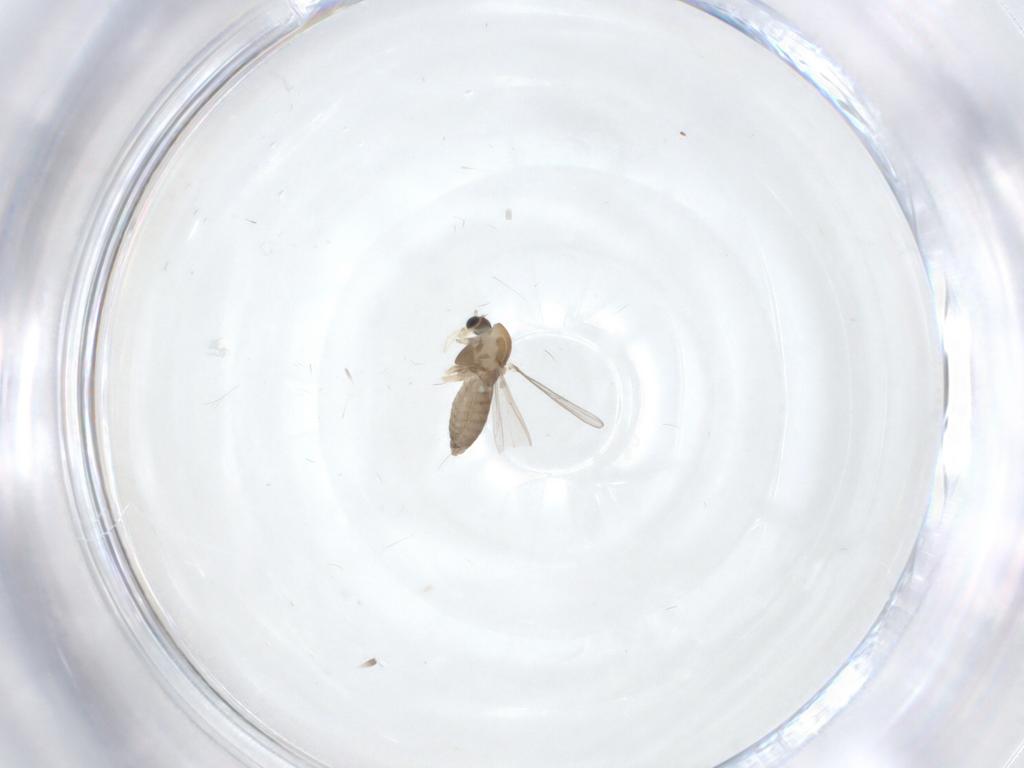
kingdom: Animalia
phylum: Arthropoda
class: Insecta
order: Diptera
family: Chironomidae
